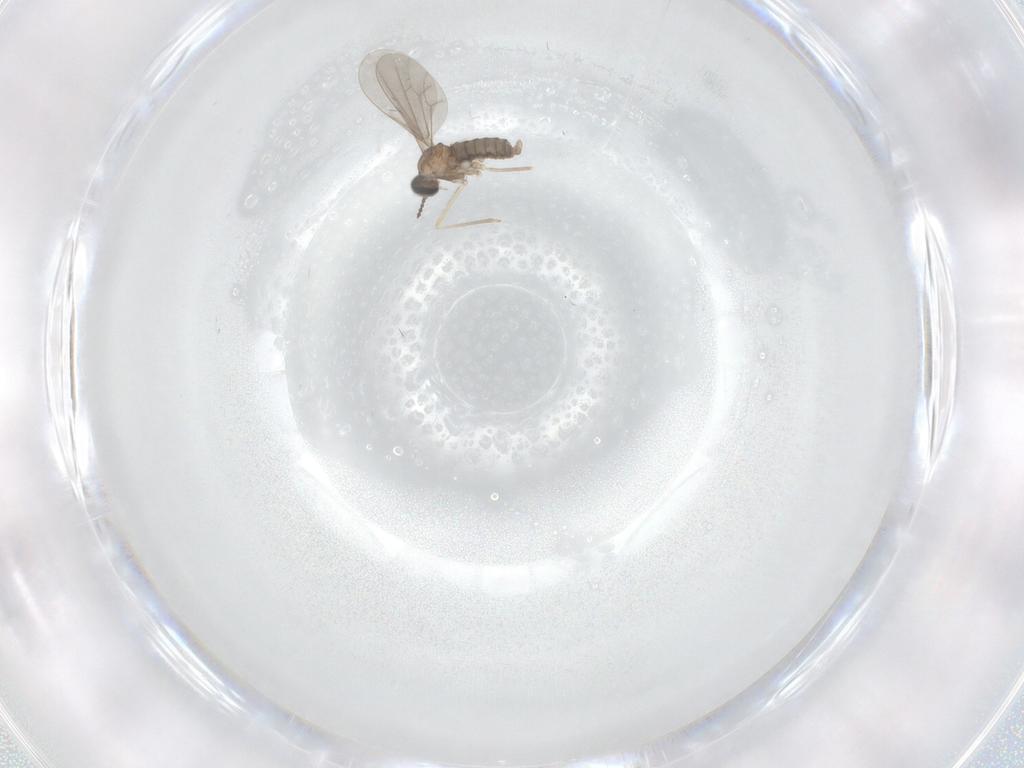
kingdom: Animalia
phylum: Arthropoda
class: Insecta
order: Diptera
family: Cecidomyiidae
